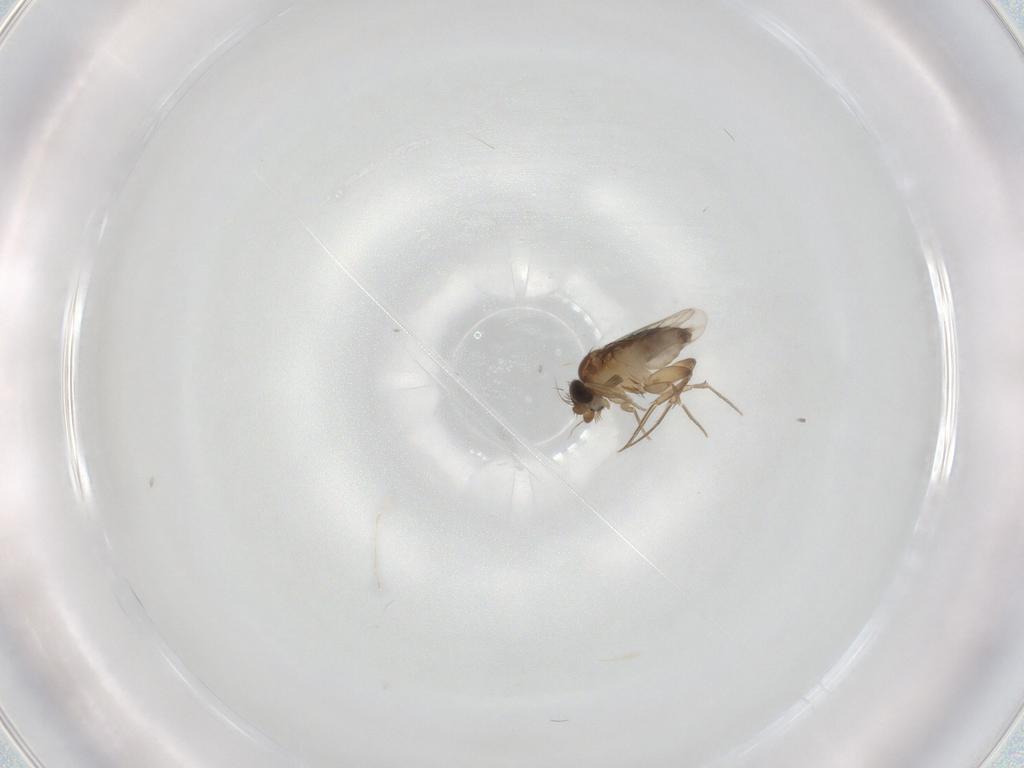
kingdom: Animalia
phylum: Arthropoda
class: Insecta
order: Diptera
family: Phoridae
